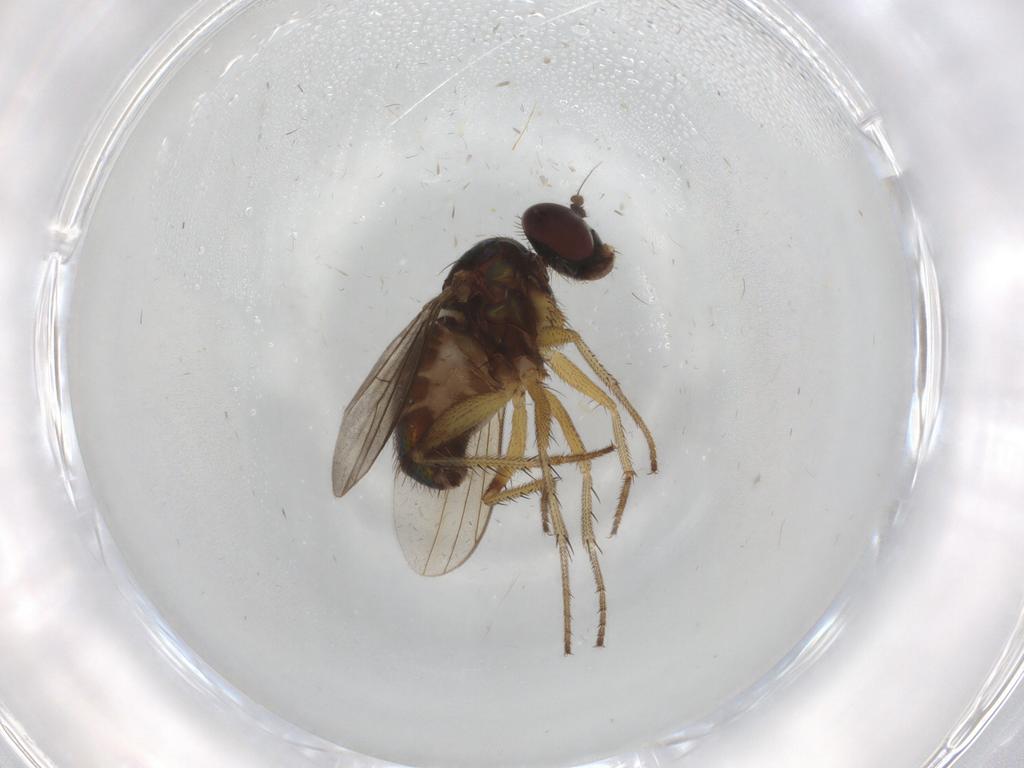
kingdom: Animalia
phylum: Arthropoda
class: Insecta
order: Diptera
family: Dolichopodidae
